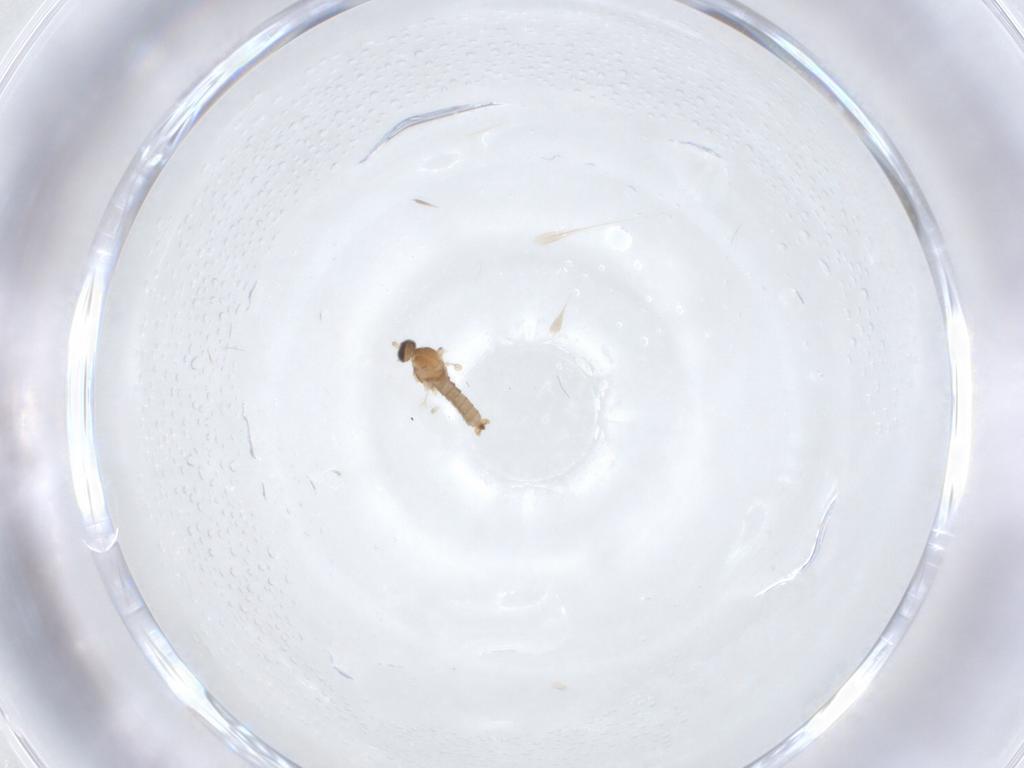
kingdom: Animalia
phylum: Arthropoda
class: Insecta
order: Diptera
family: Cecidomyiidae
